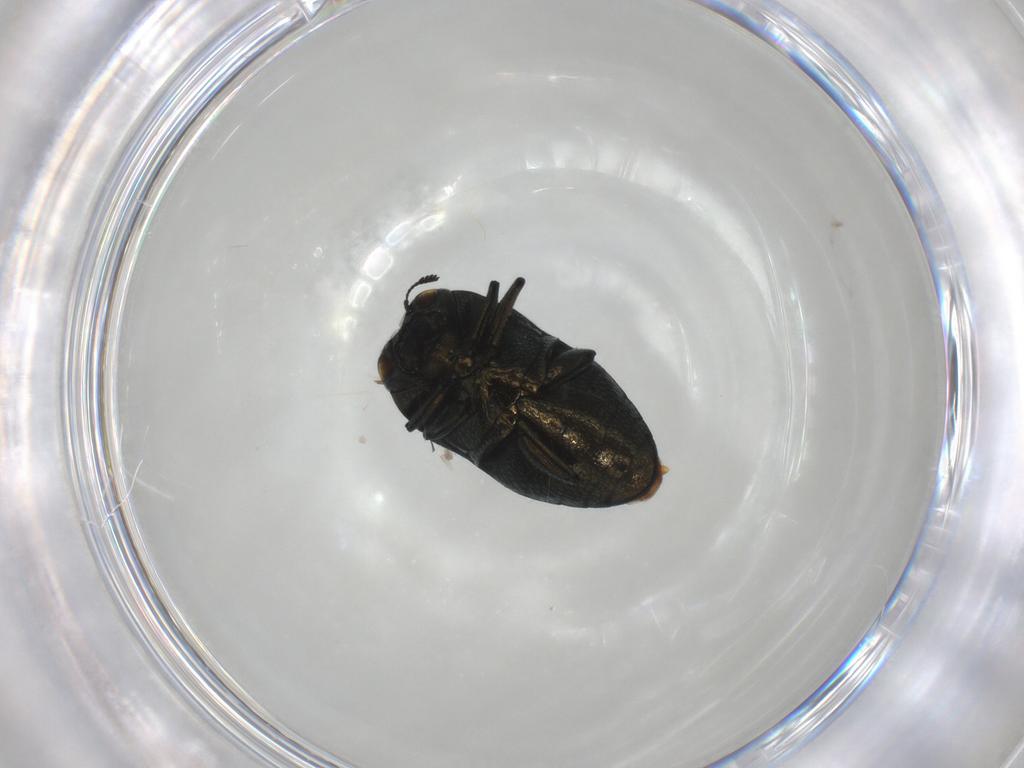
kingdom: Animalia
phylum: Arthropoda
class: Insecta
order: Coleoptera
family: Buprestidae
